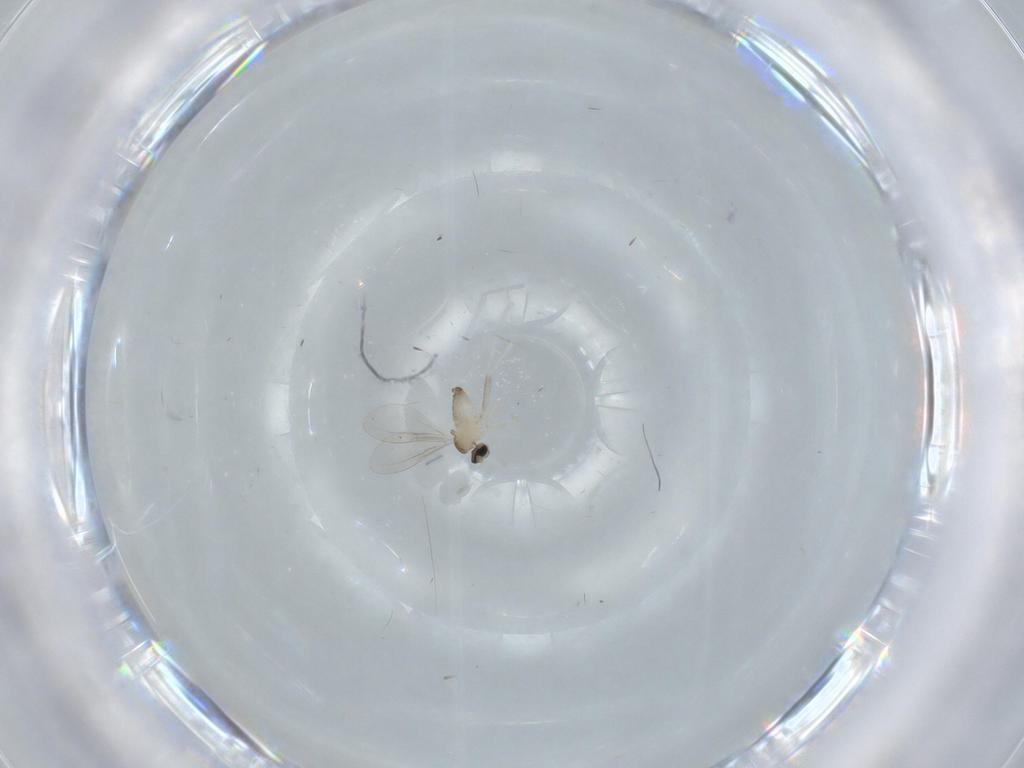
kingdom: Animalia
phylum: Arthropoda
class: Insecta
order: Diptera
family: Cecidomyiidae
